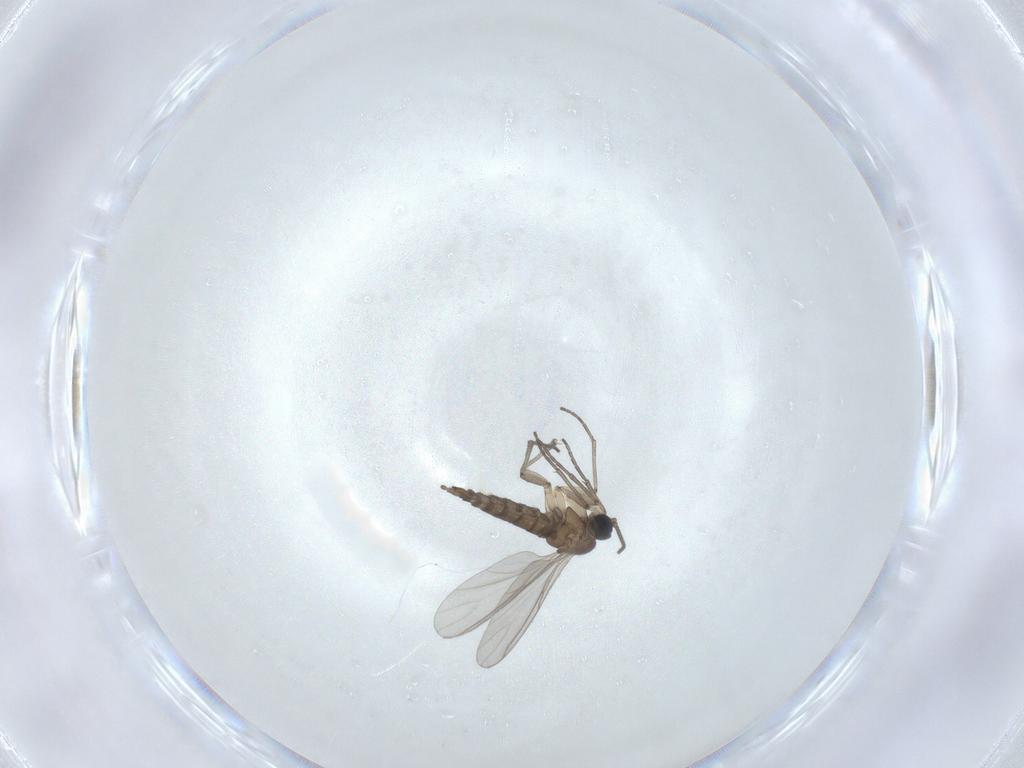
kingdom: Animalia
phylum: Arthropoda
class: Insecta
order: Diptera
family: Sciaridae
